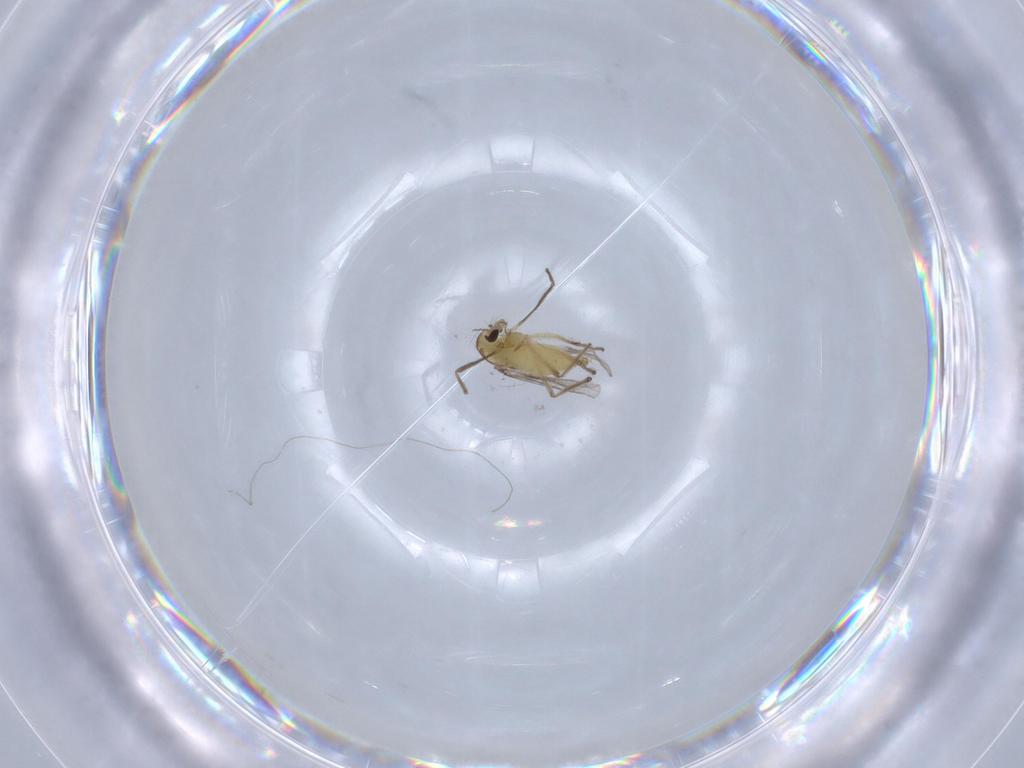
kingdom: Animalia
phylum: Arthropoda
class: Insecta
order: Diptera
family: Chironomidae
